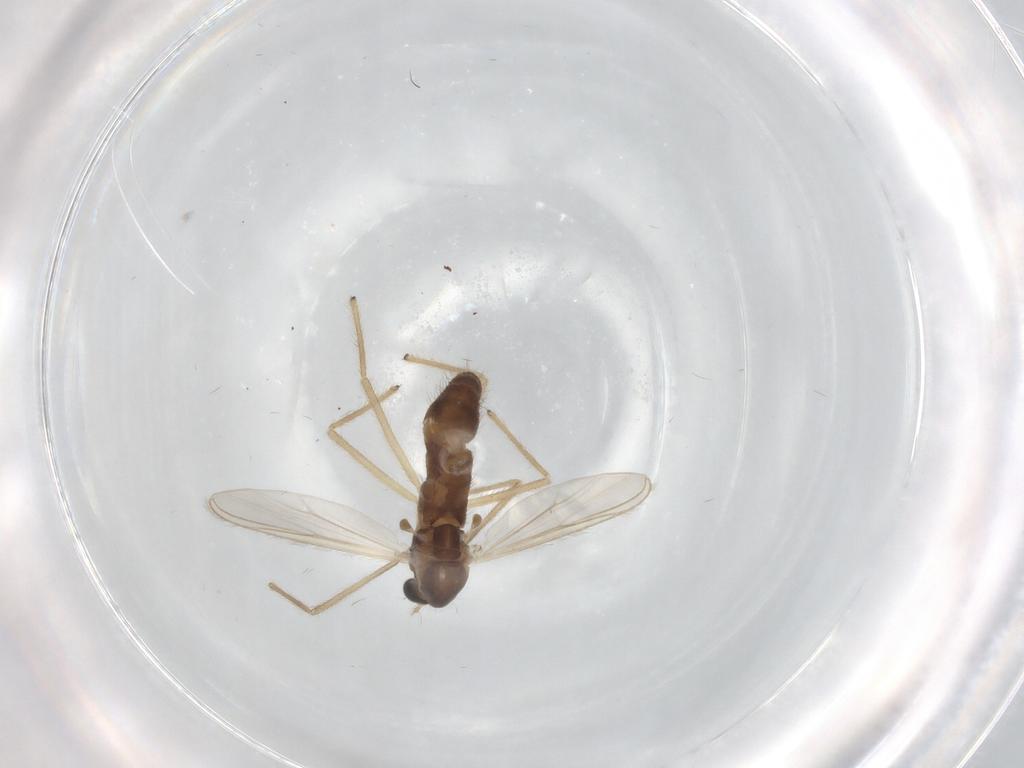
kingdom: Animalia
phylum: Arthropoda
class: Insecta
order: Diptera
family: Chironomidae
